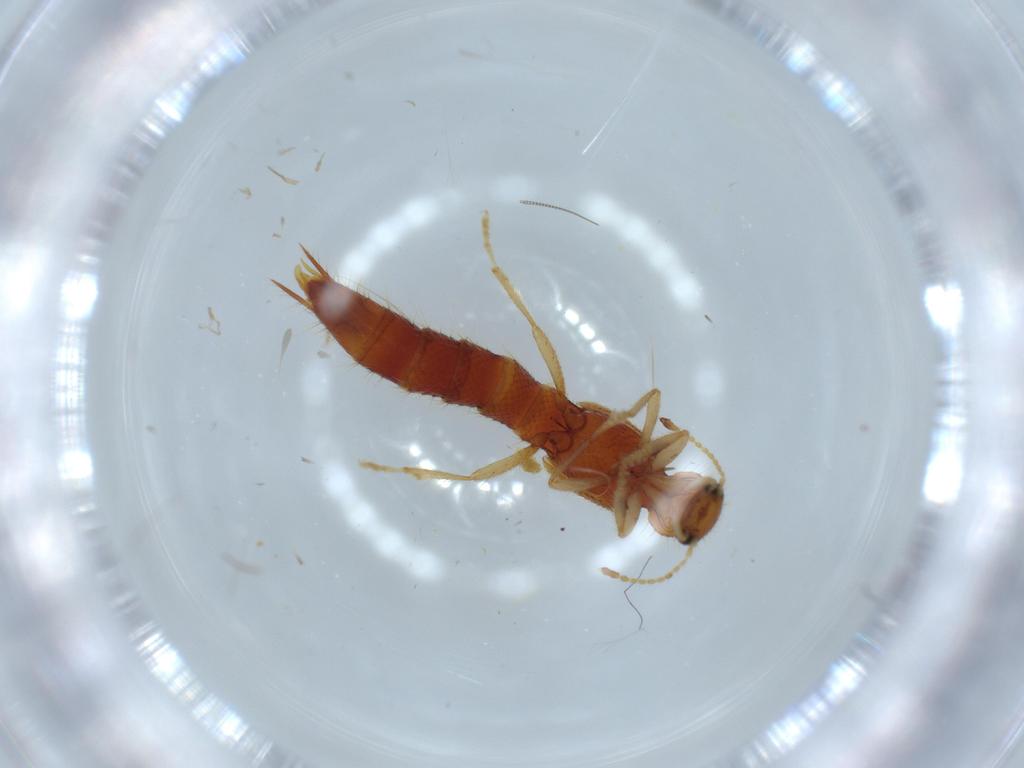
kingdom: Animalia
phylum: Arthropoda
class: Insecta
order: Coleoptera
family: Staphylinidae
